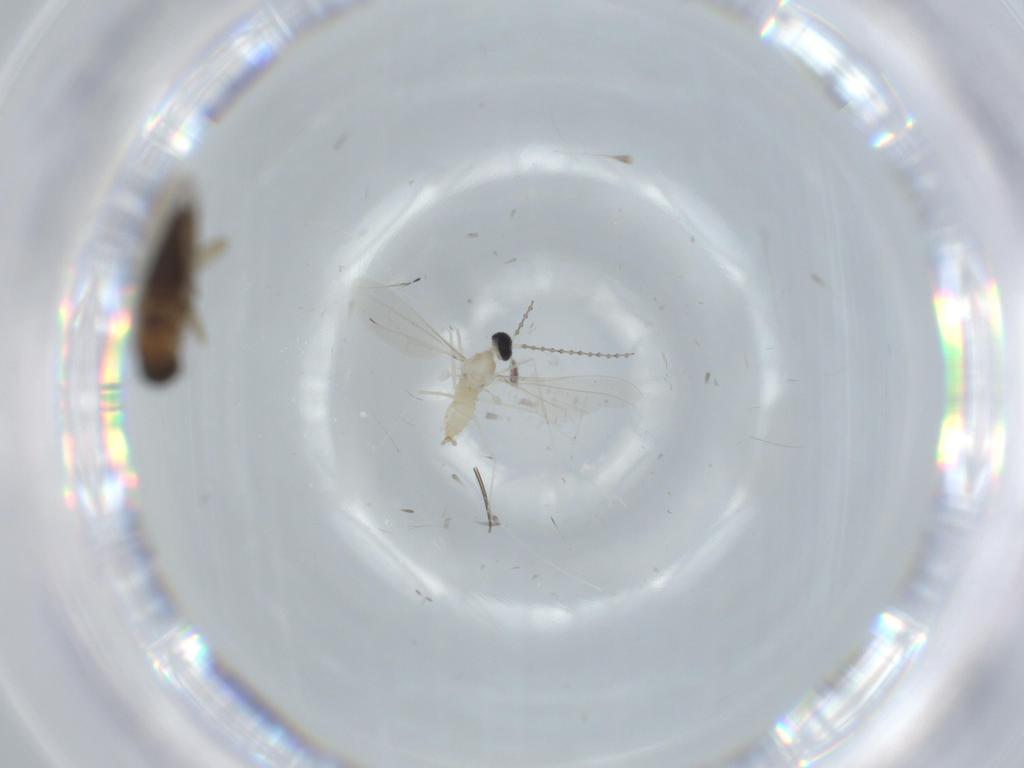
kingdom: Animalia
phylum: Arthropoda
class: Insecta
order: Diptera
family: Phoridae
